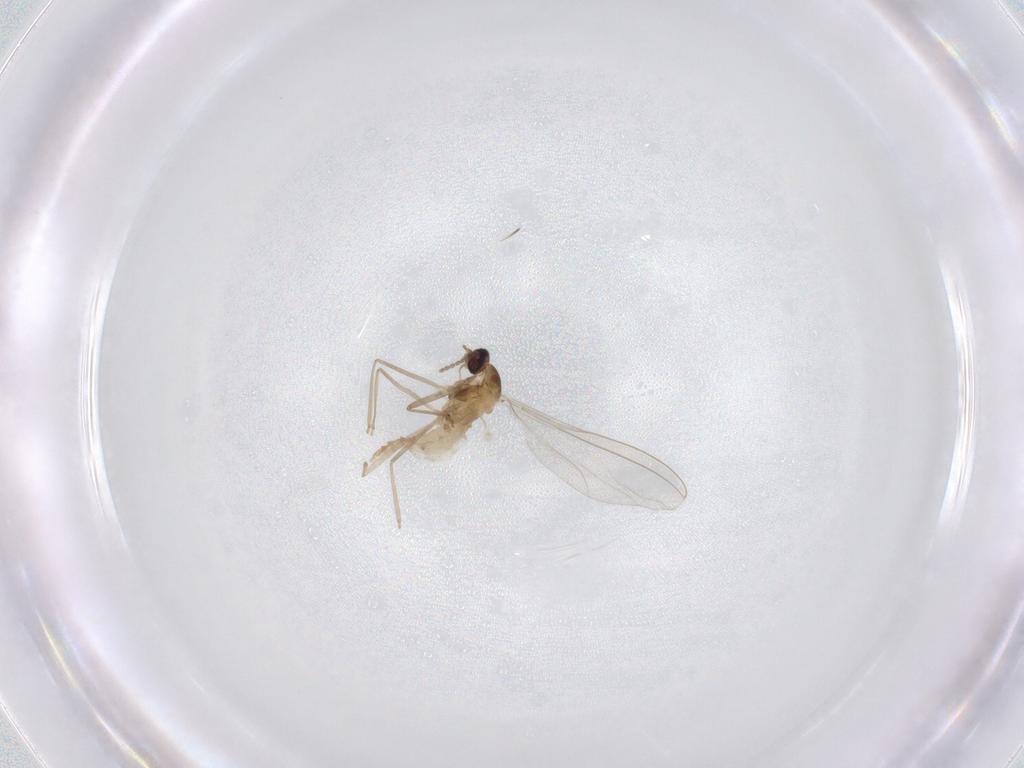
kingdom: Animalia
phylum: Arthropoda
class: Insecta
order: Diptera
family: Cecidomyiidae
